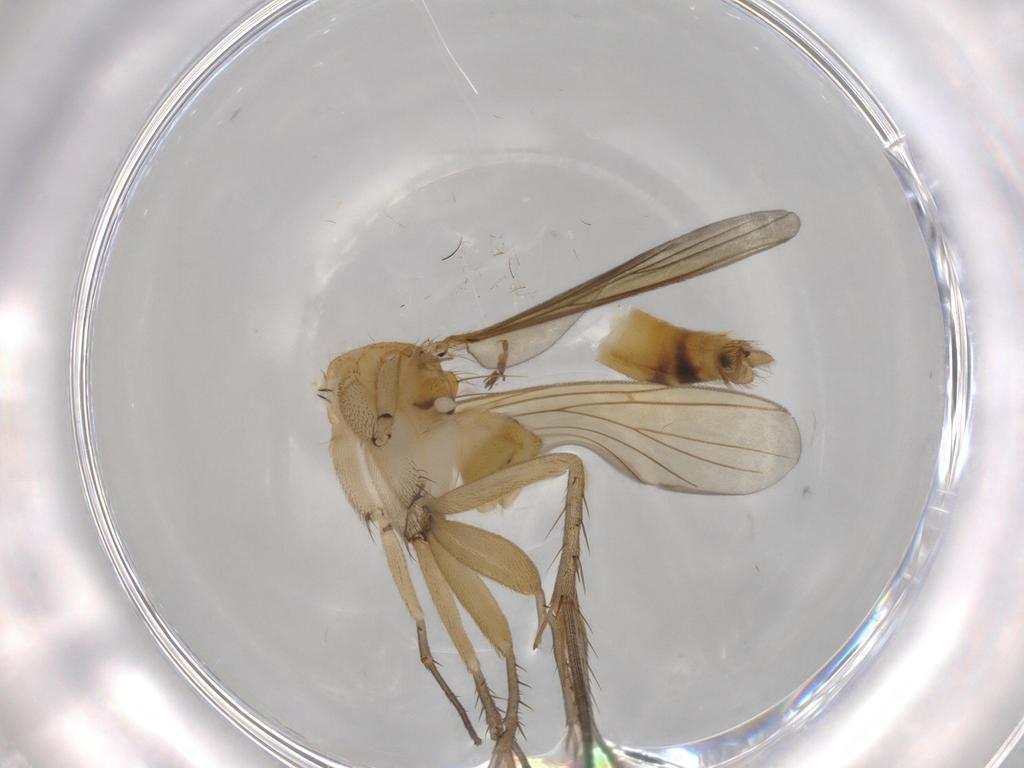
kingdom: Animalia
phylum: Arthropoda
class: Insecta
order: Diptera
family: Mycetophilidae
